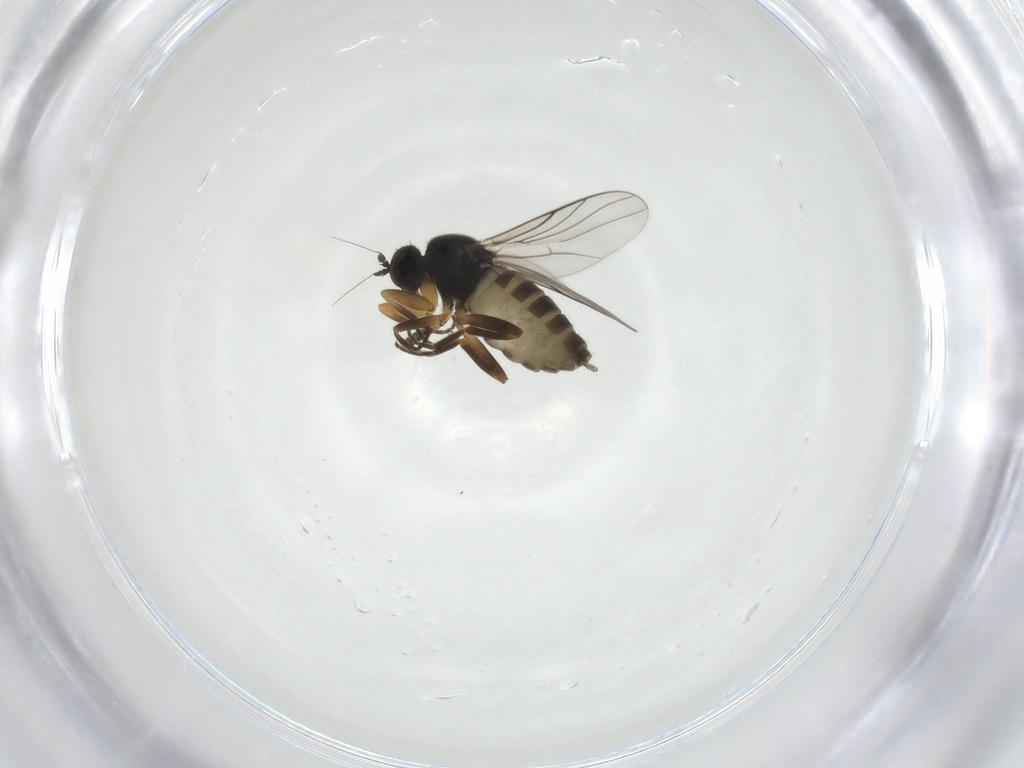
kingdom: Animalia
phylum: Arthropoda
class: Insecta
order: Diptera
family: Hybotidae
